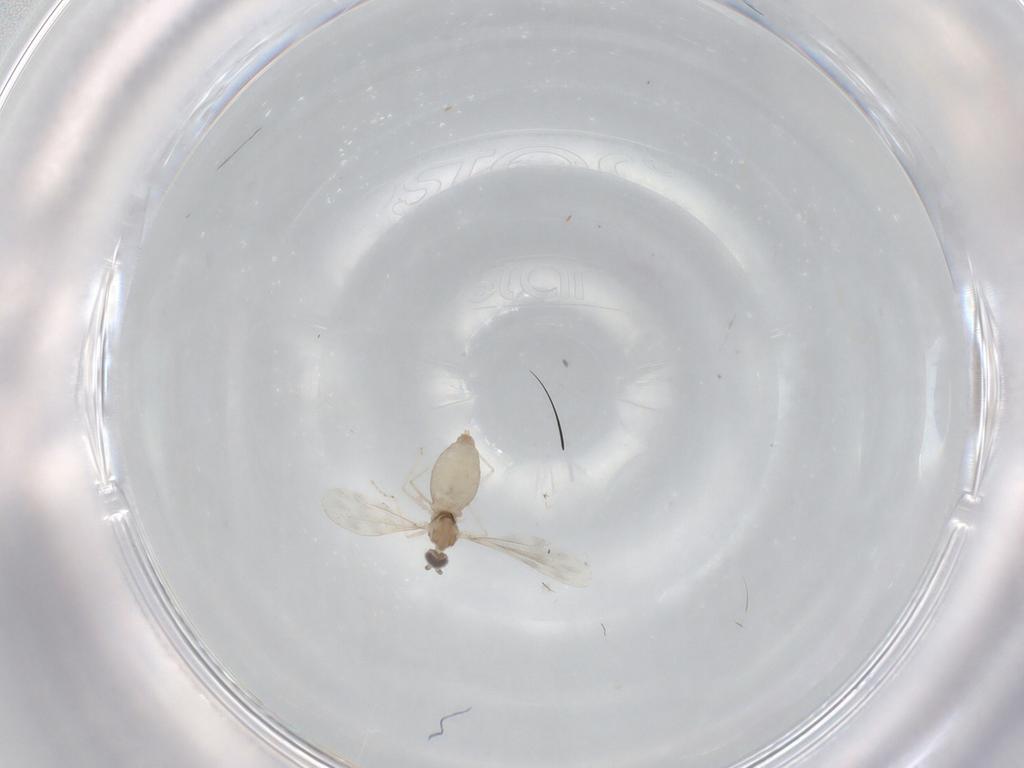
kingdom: Animalia
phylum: Arthropoda
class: Insecta
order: Diptera
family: Cecidomyiidae
